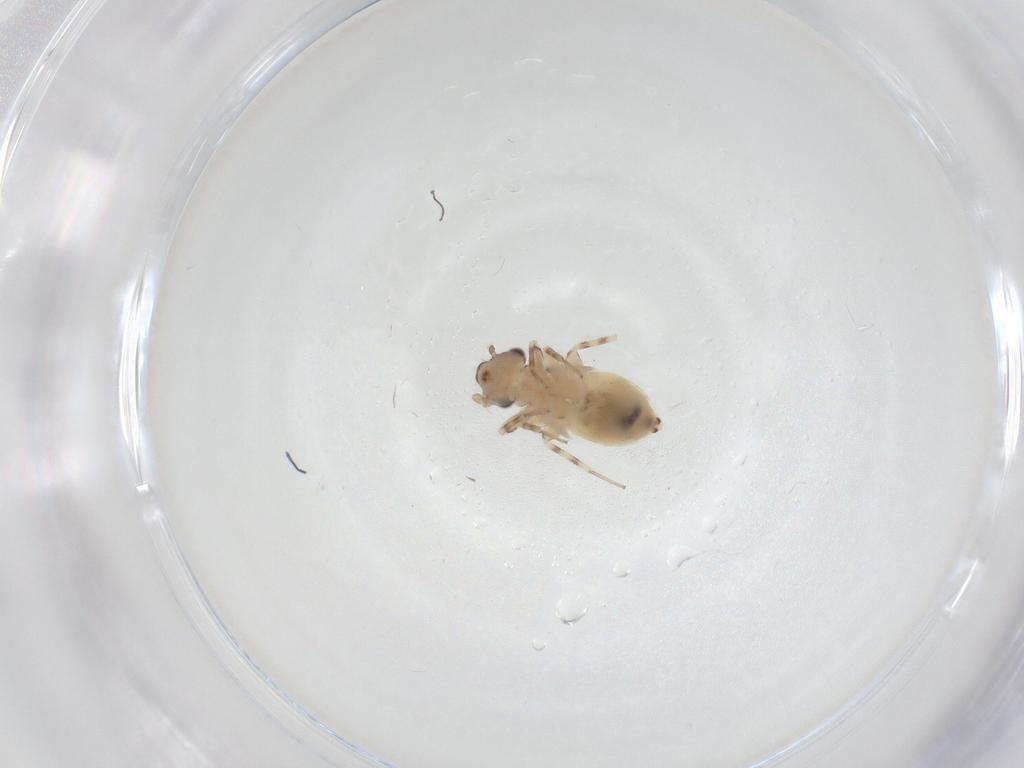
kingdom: Animalia
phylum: Arthropoda
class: Insecta
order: Psocodea
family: Lepidopsocidae
